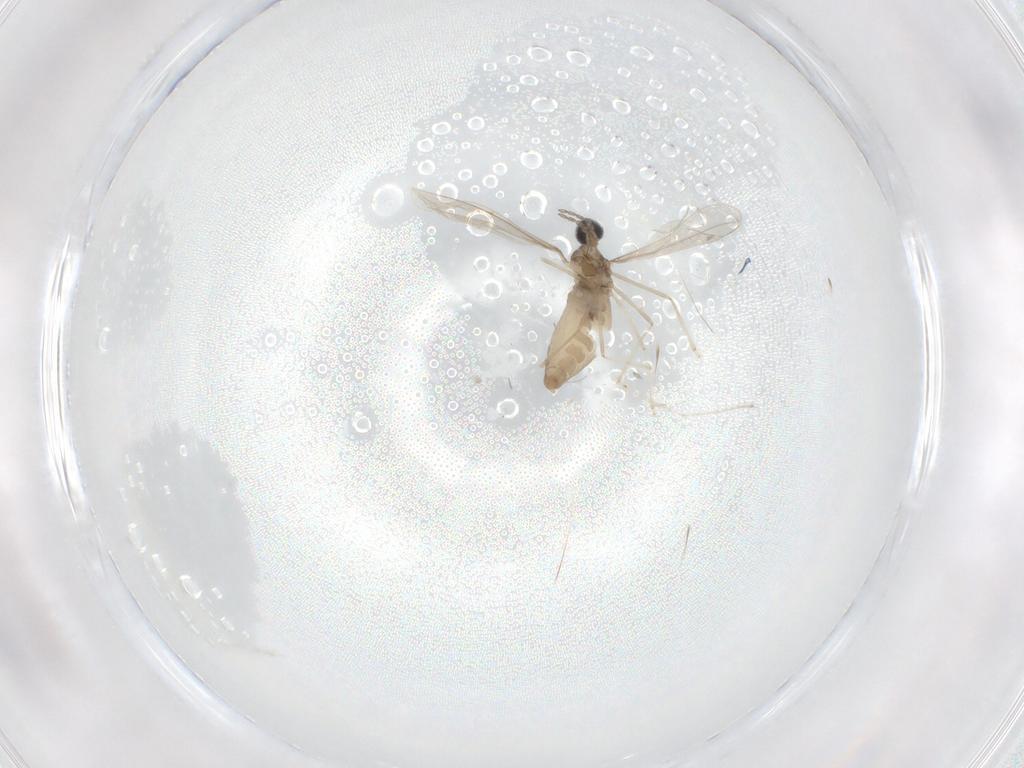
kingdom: Animalia
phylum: Arthropoda
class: Insecta
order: Diptera
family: Cecidomyiidae
